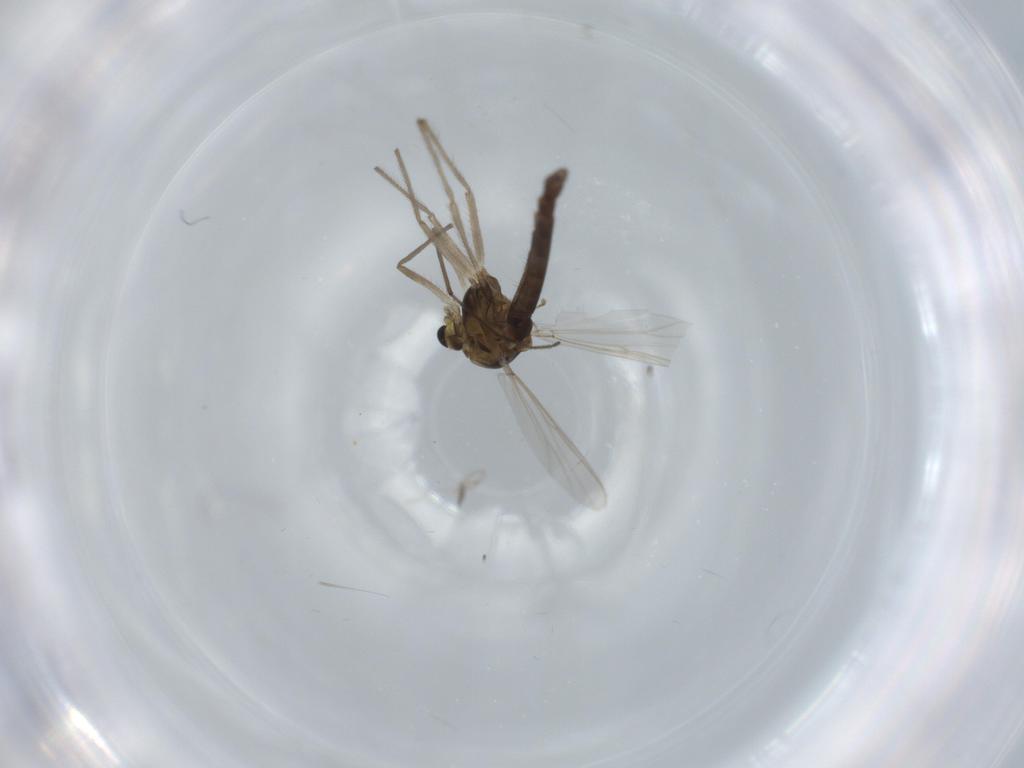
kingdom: Animalia
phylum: Arthropoda
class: Insecta
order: Diptera
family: Chironomidae
